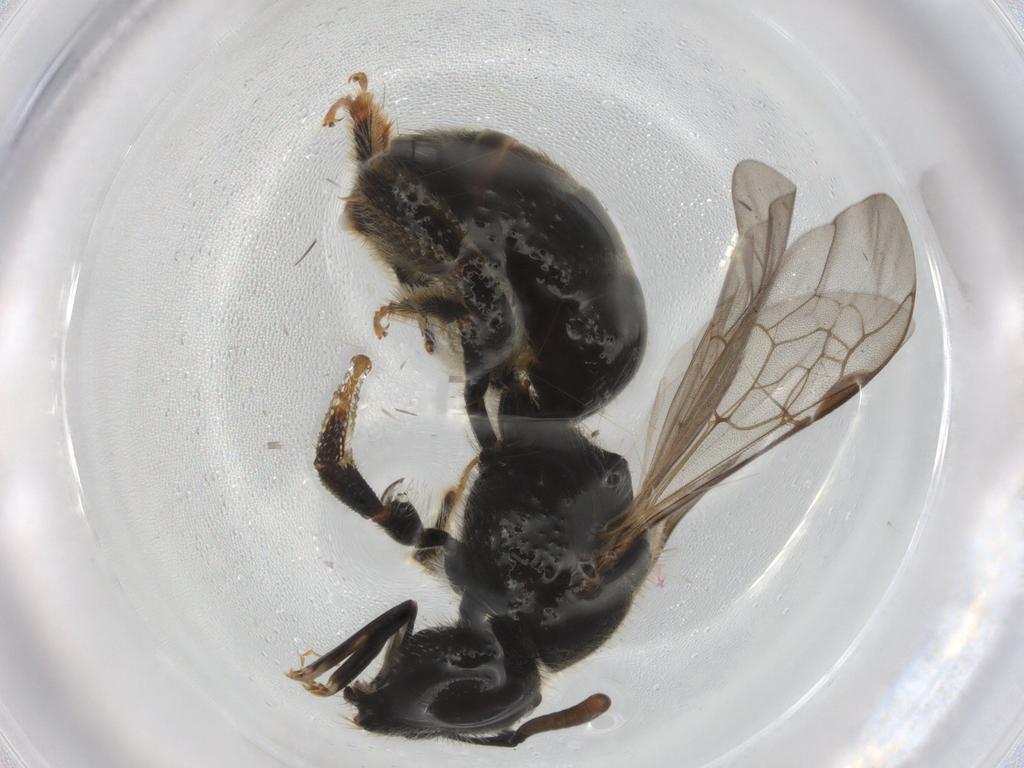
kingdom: Animalia
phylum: Arthropoda
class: Insecta
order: Hymenoptera
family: Halictidae
